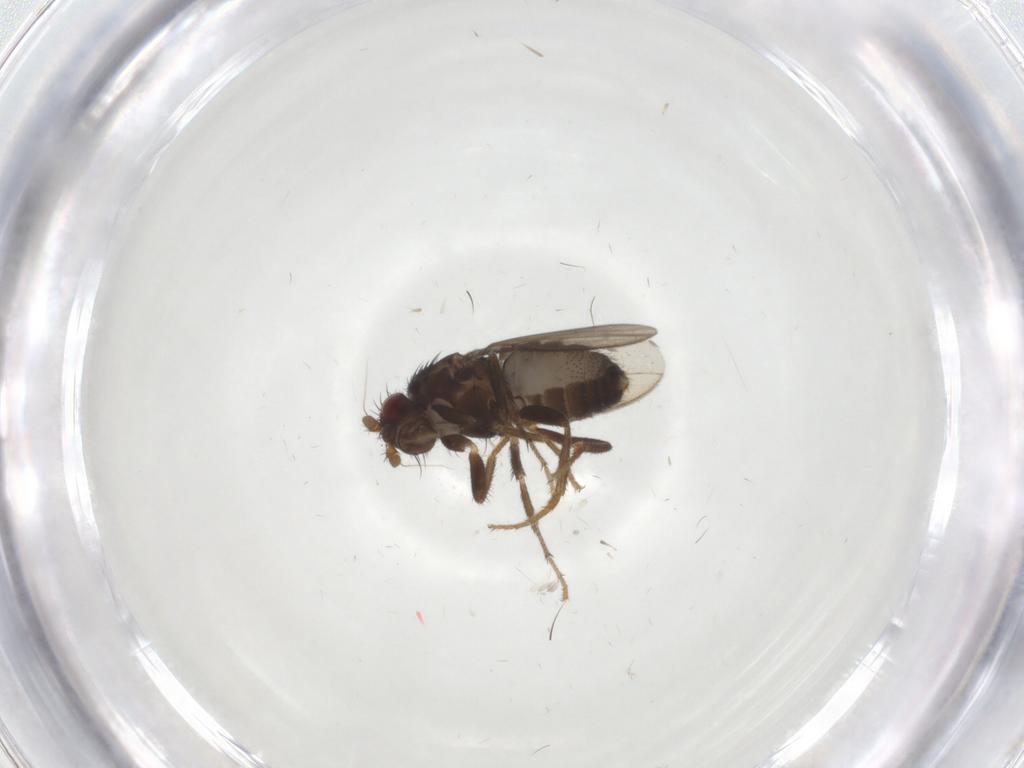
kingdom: Animalia
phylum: Arthropoda
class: Insecta
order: Diptera
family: Sphaeroceridae
